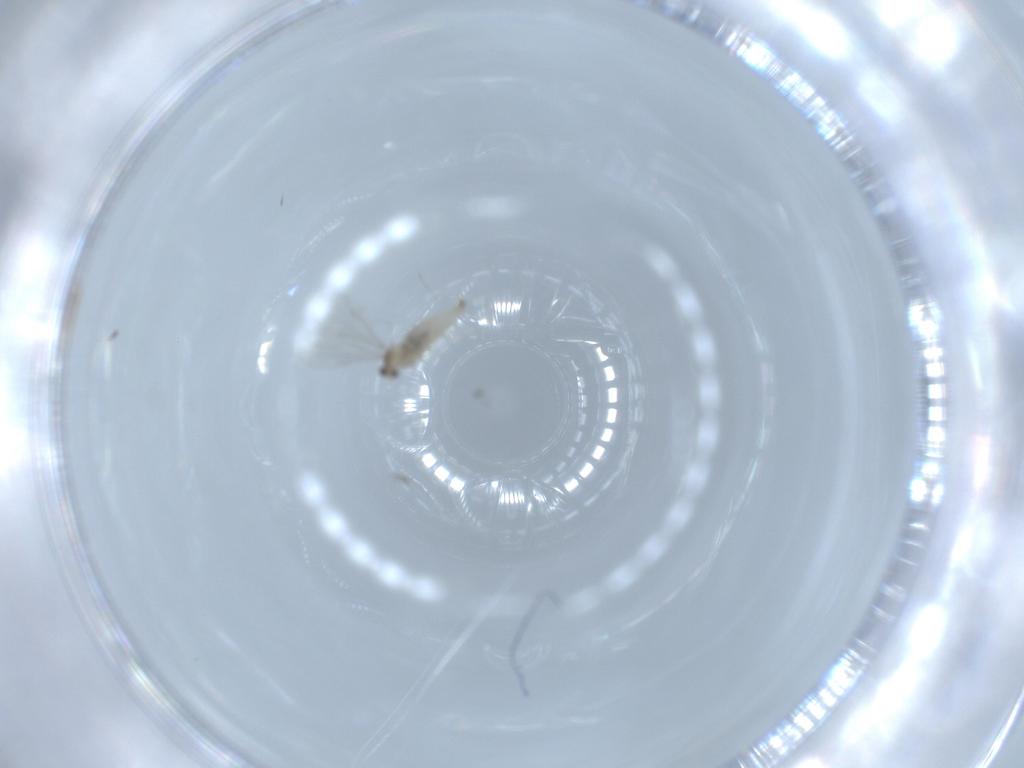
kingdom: Animalia
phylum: Arthropoda
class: Insecta
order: Diptera
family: Cecidomyiidae
